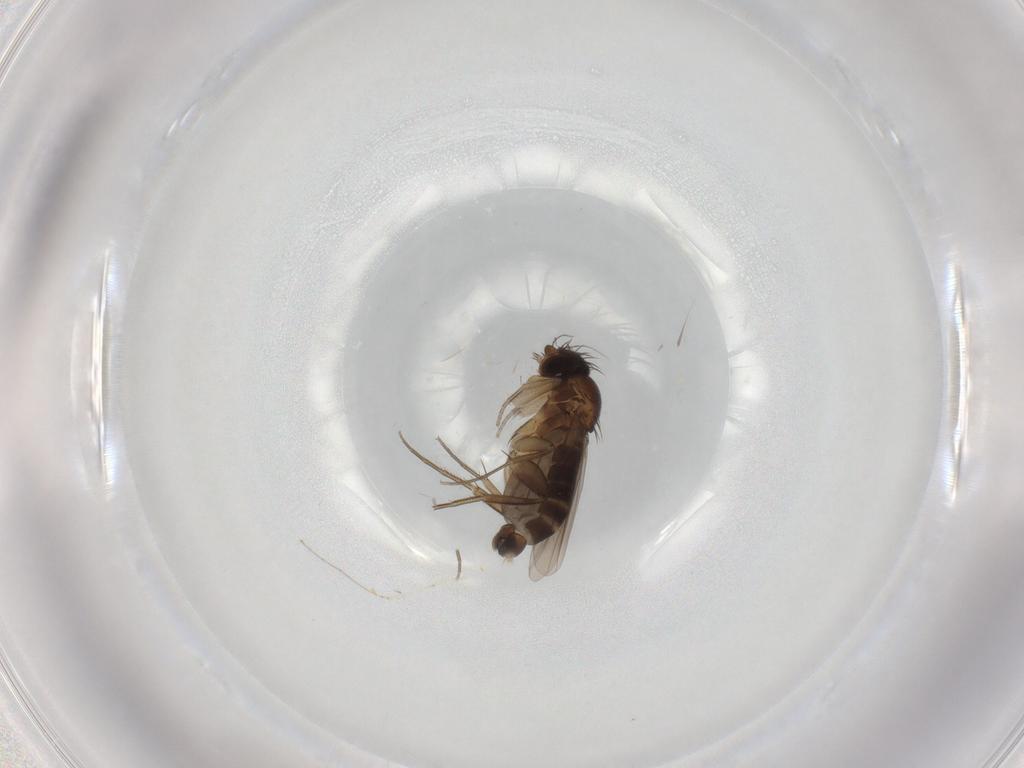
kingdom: Animalia
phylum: Arthropoda
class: Insecta
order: Diptera
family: Phoridae
